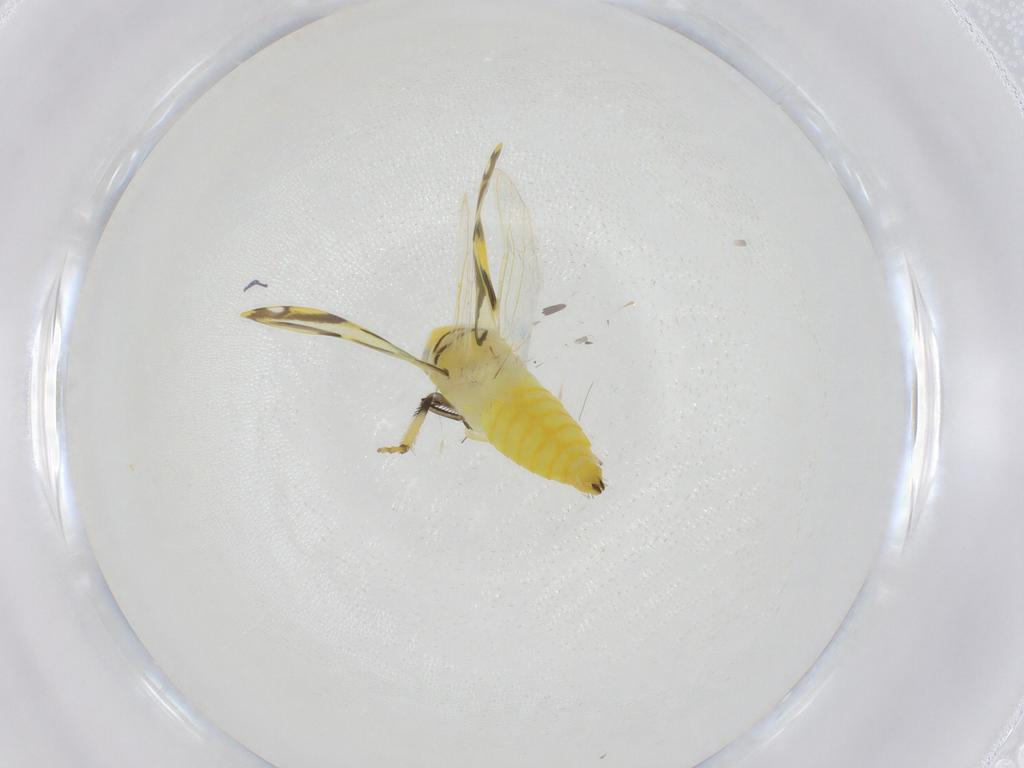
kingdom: Animalia
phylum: Arthropoda
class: Insecta
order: Hemiptera
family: Cicadellidae
